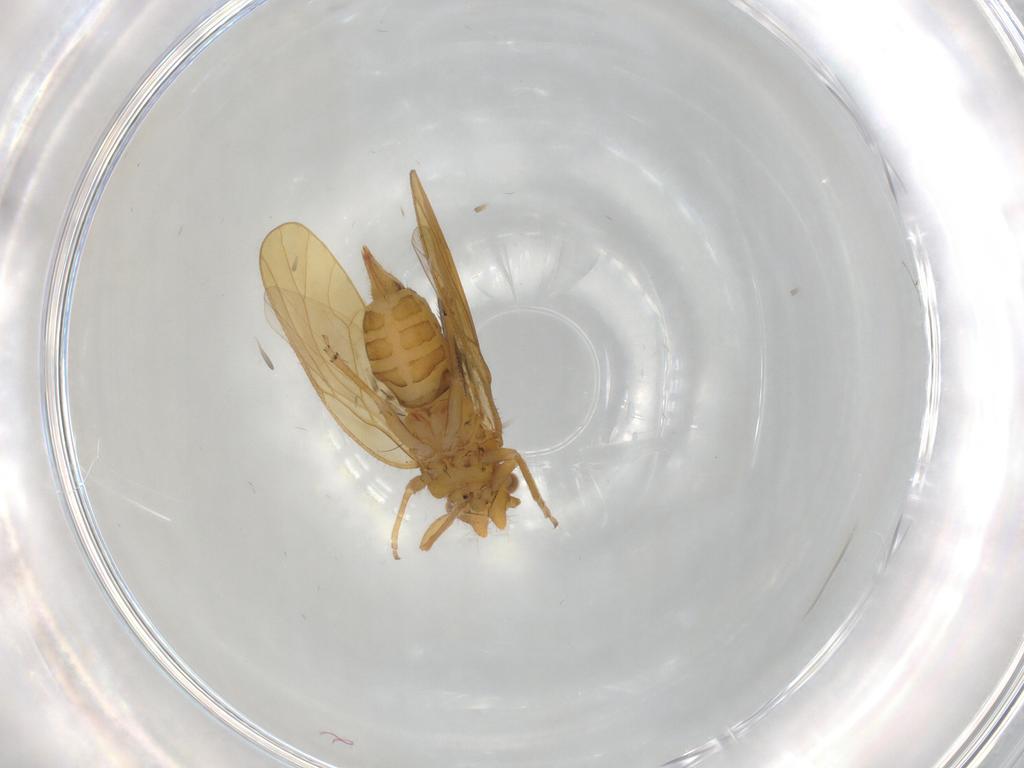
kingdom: Animalia
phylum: Arthropoda
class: Insecta
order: Hemiptera
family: Psyllidae
